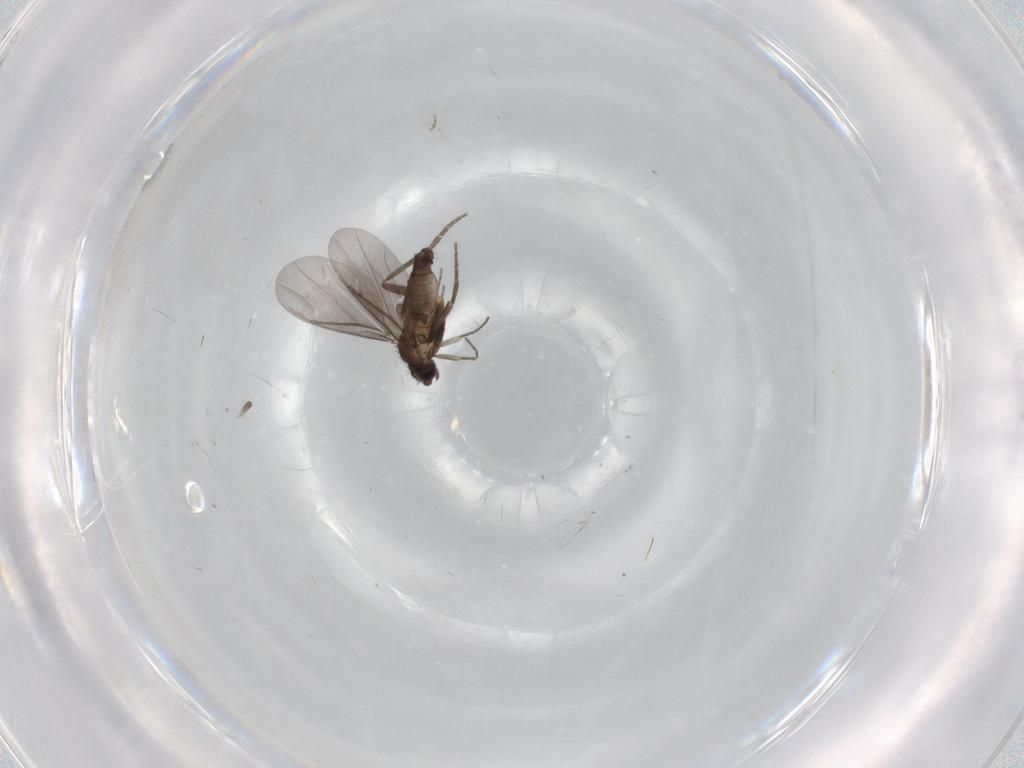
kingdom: Animalia
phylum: Arthropoda
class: Insecta
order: Diptera
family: Phoridae
